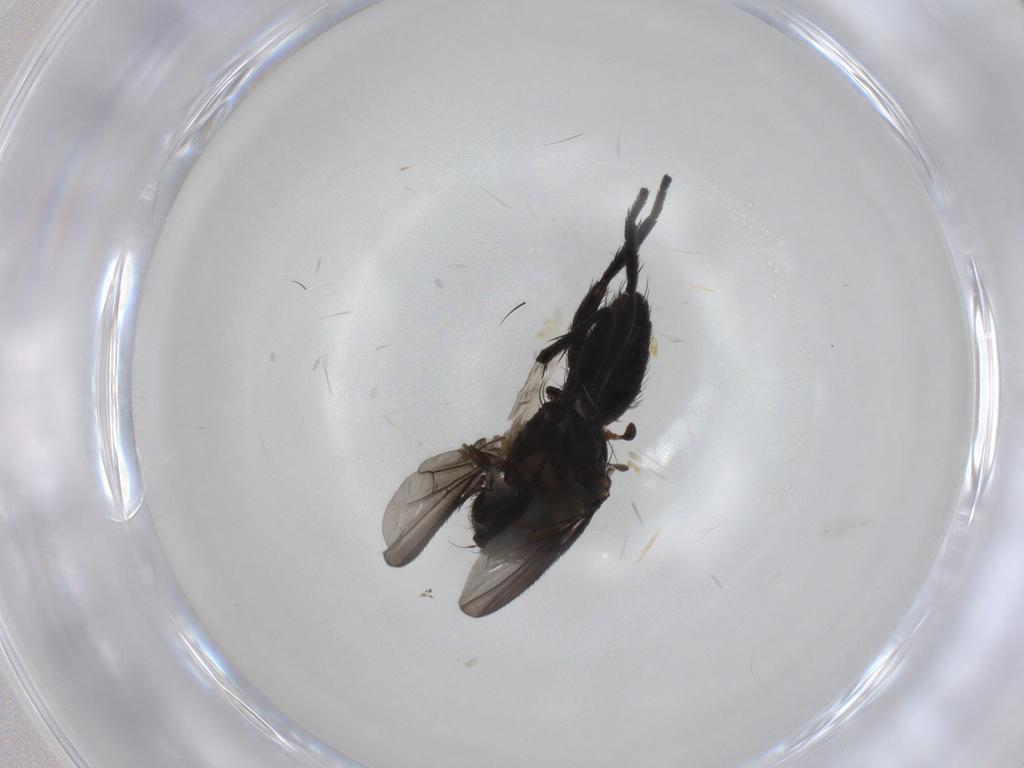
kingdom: Animalia
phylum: Arthropoda
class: Insecta
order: Diptera
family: Tachinidae
